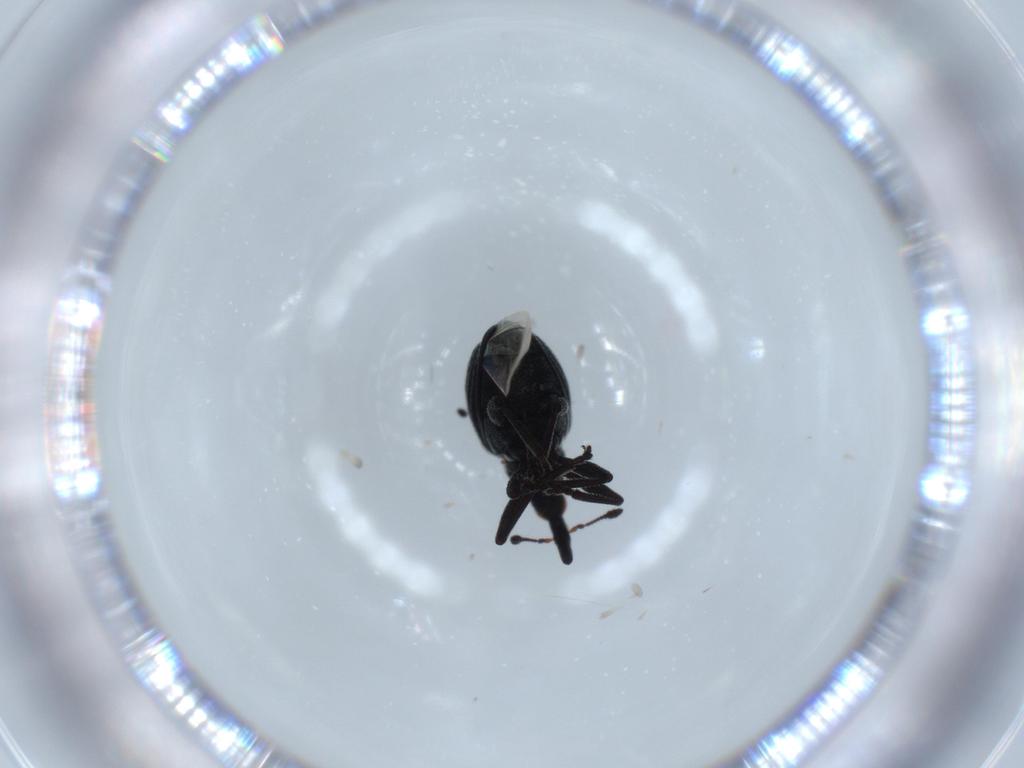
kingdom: Animalia
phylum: Arthropoda
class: Insecta
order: Coleoptera
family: Brentidae
